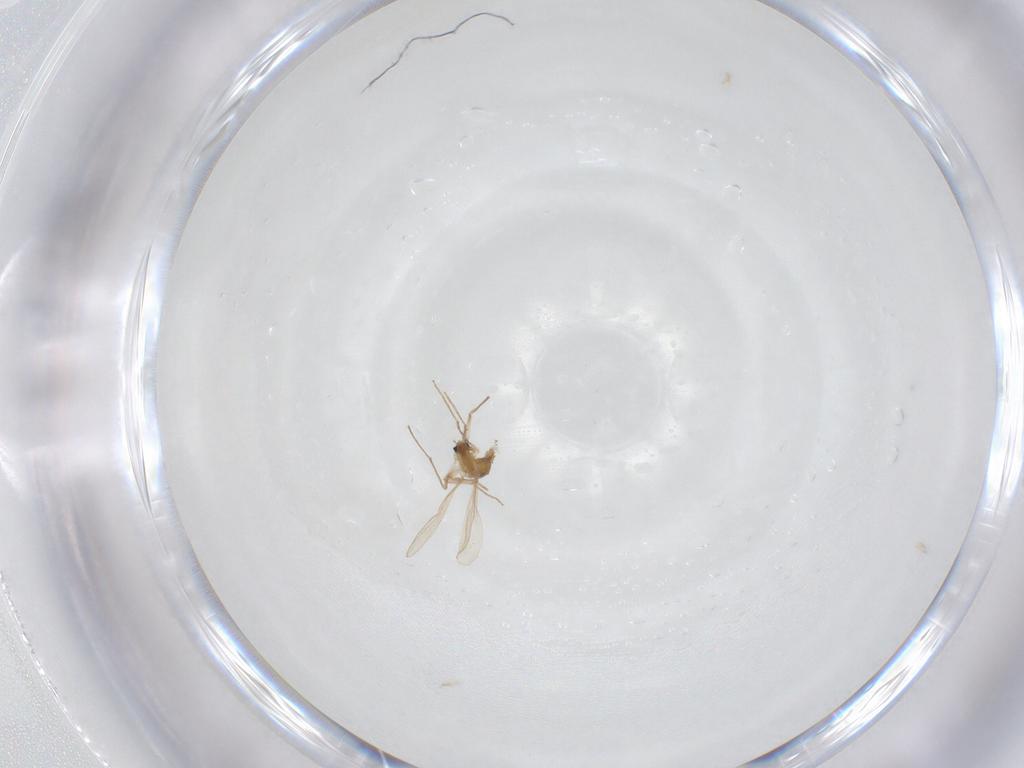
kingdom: Animalia
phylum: Arthropoda
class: Insecta
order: Diptera
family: Chironomidae
